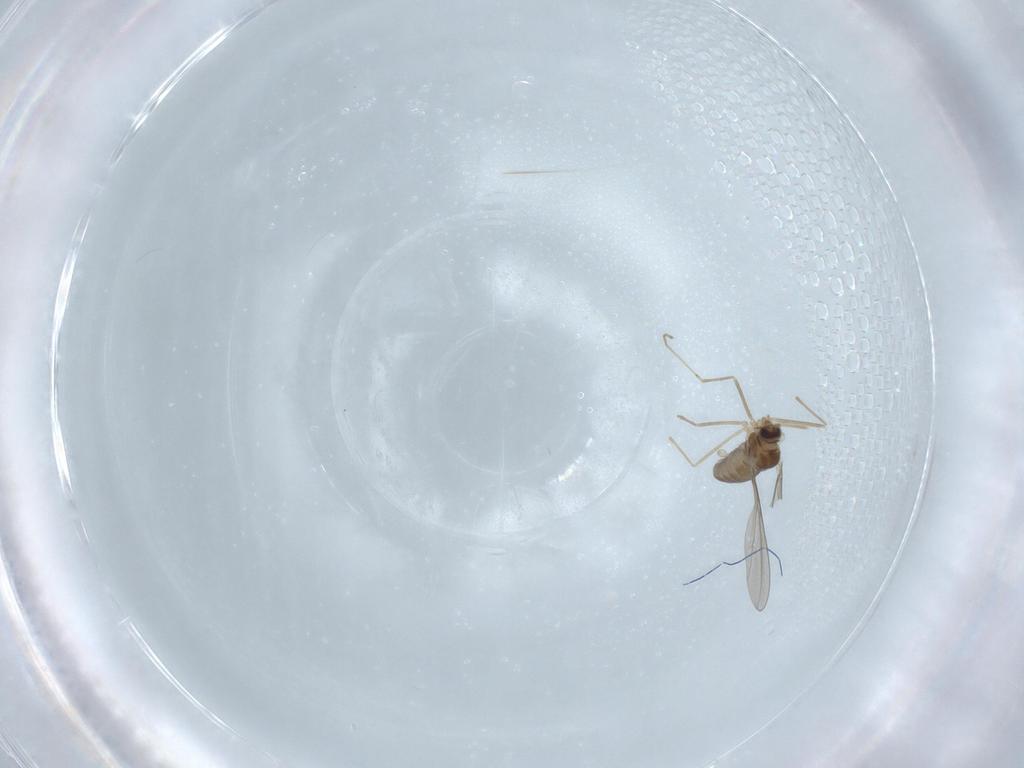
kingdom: Animalia
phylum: Arthropoda
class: Insecta
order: Diptera
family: Cecidomyiidae
